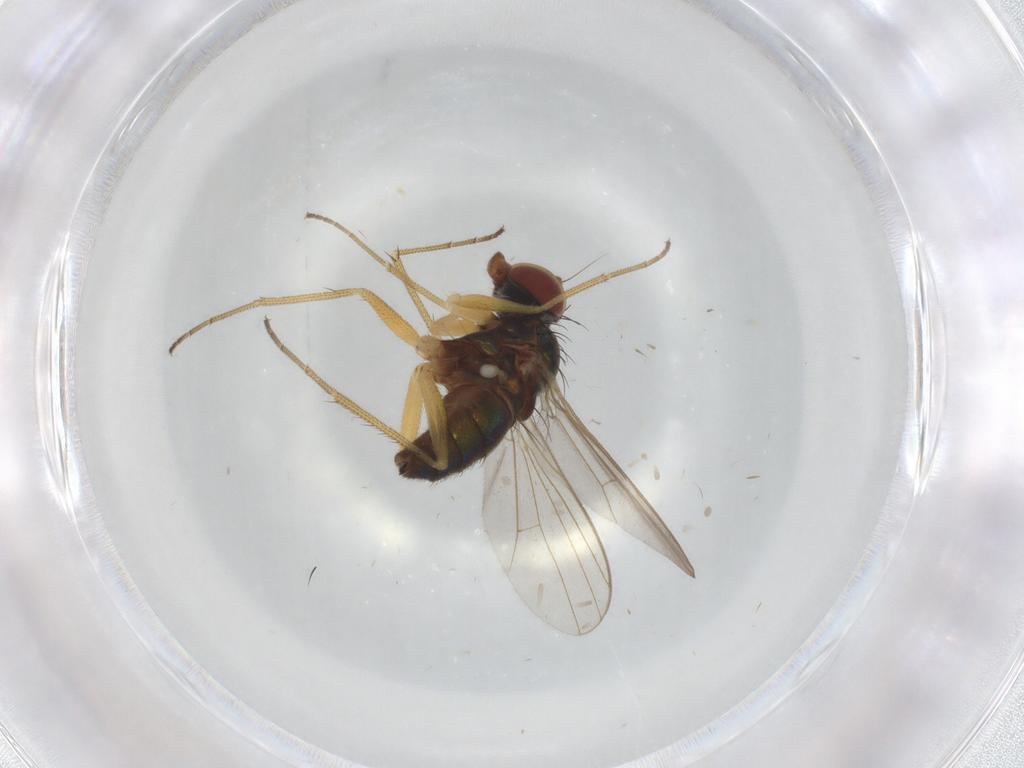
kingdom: Animalia
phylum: Arthropoda
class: Insecta
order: Diptera
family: Dolichopodidae
